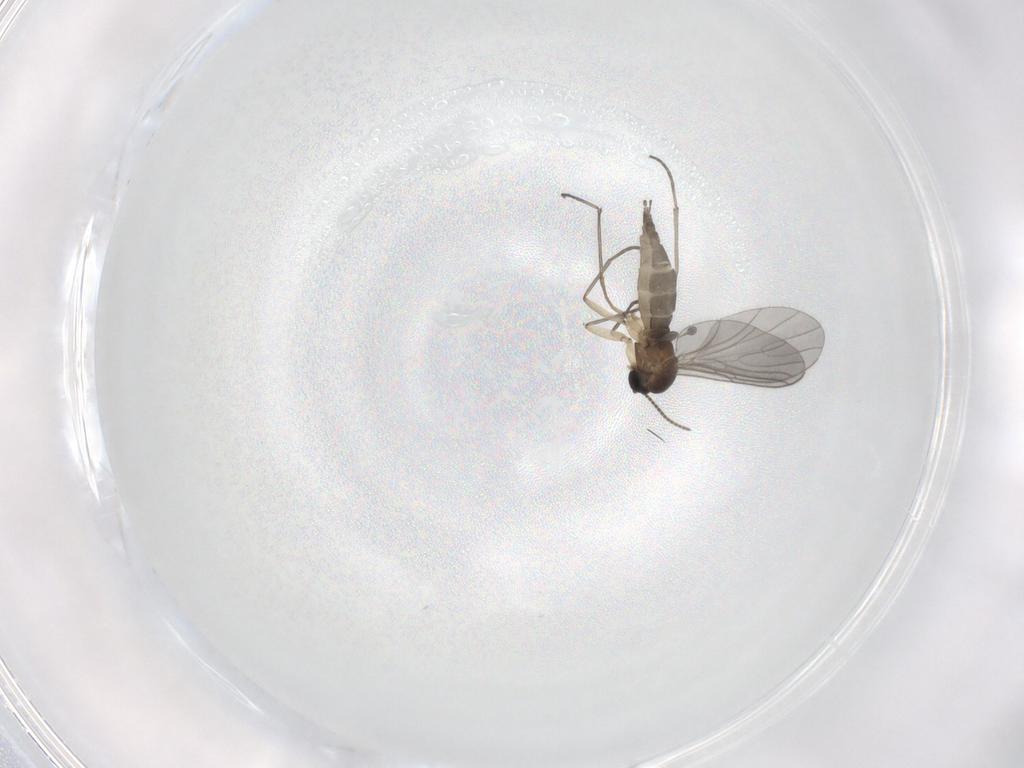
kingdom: Animalia
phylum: Arthropoda
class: Insecta
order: Diptera
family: Sciaridae
